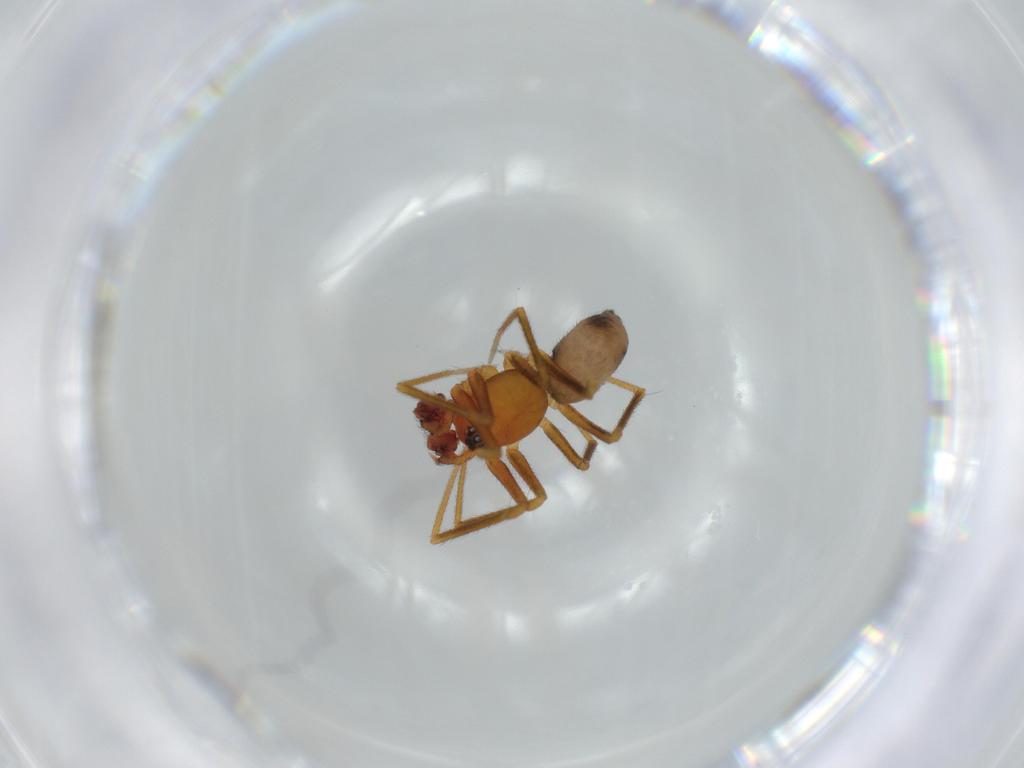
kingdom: Animalia
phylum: Arthropoda
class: Arachnida
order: Araneae
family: Linyphiidae
